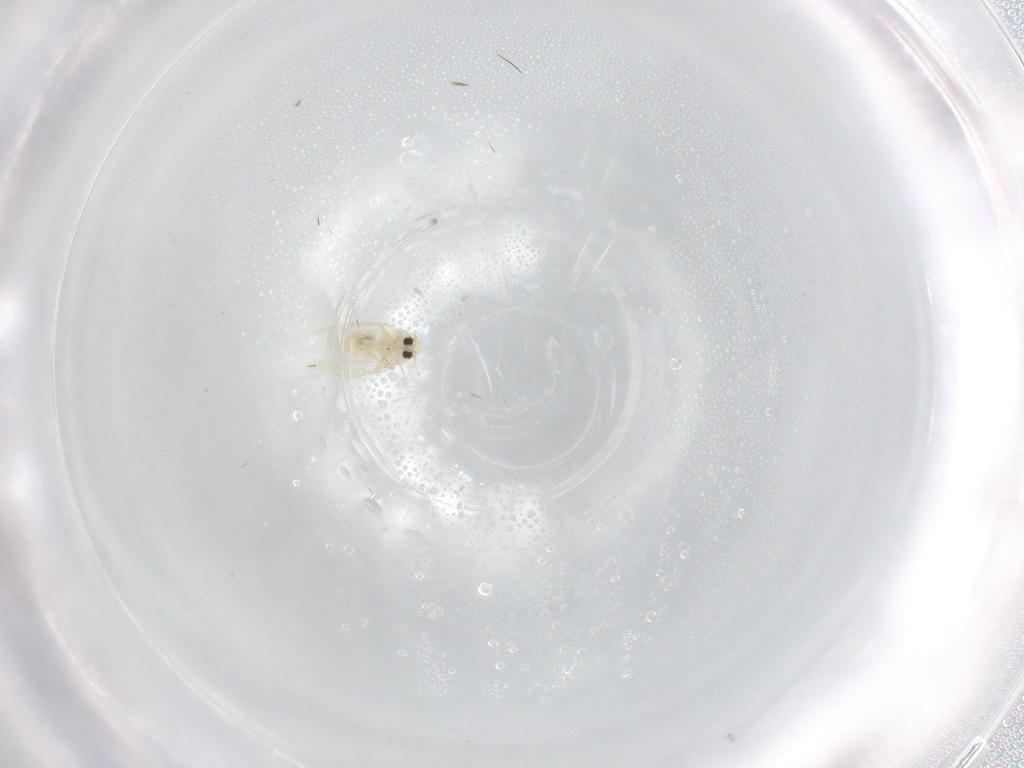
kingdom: Animalia
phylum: Arthropoda
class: Insecta
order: Hemiptera
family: Aleyrodidae
